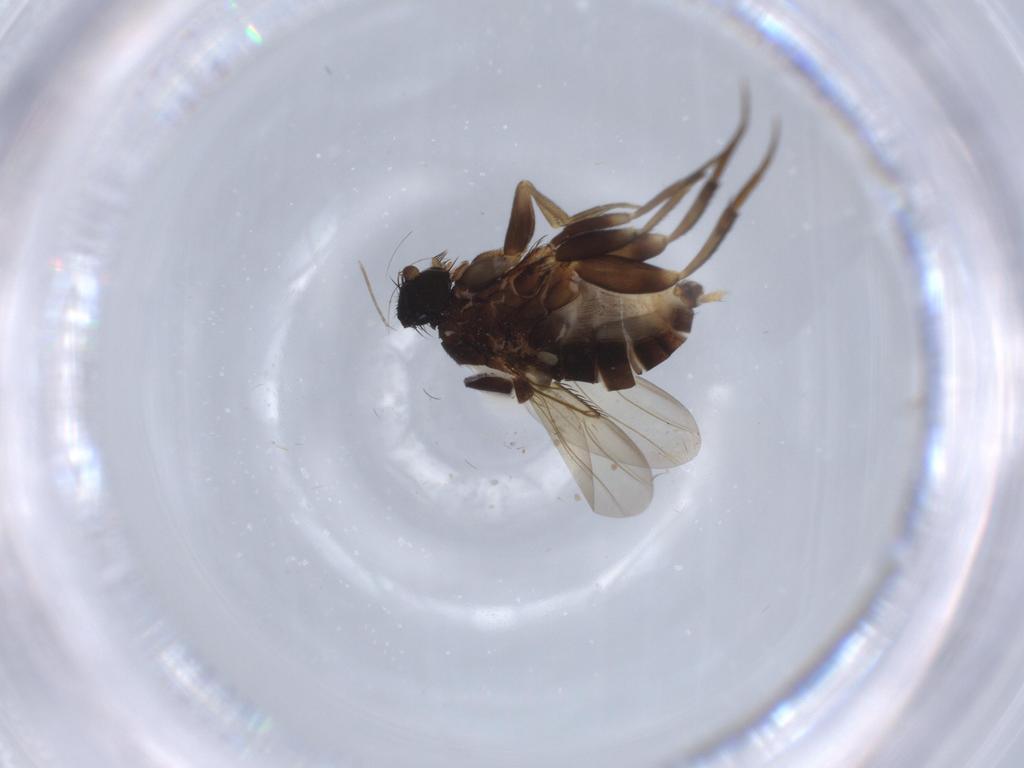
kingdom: Animalia
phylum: Arthropoda
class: Insecta
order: Diptera
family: Phoridae
